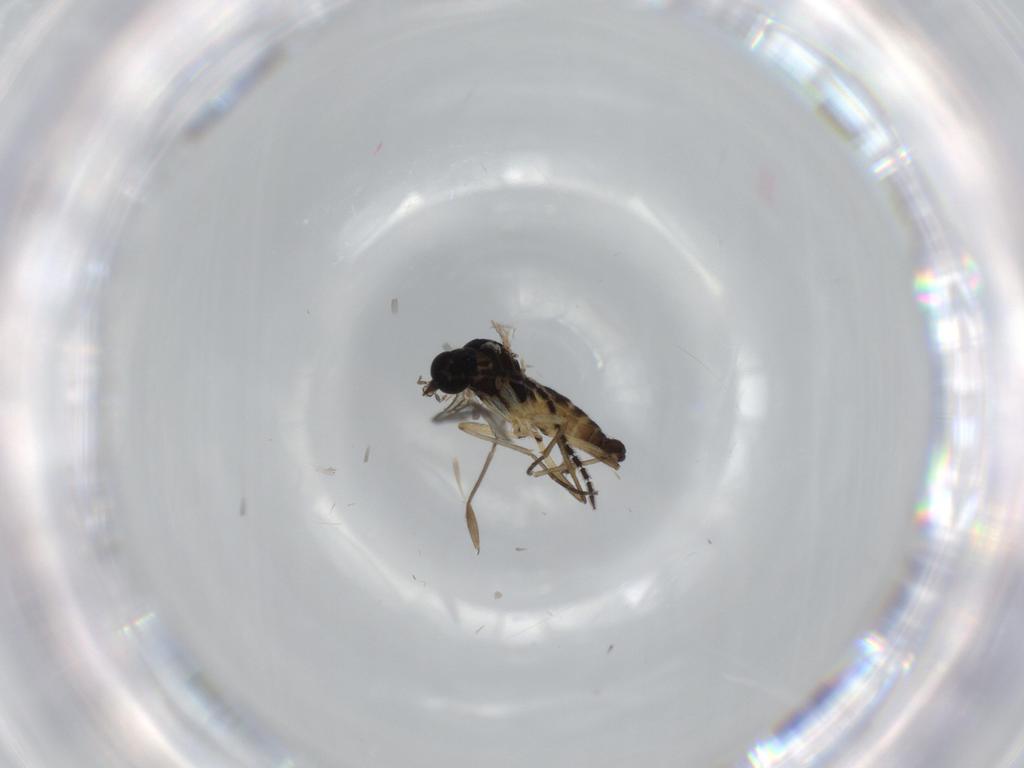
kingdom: Animalia
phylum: Arthropoda
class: Insecta
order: Diptera
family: Sciaridae
